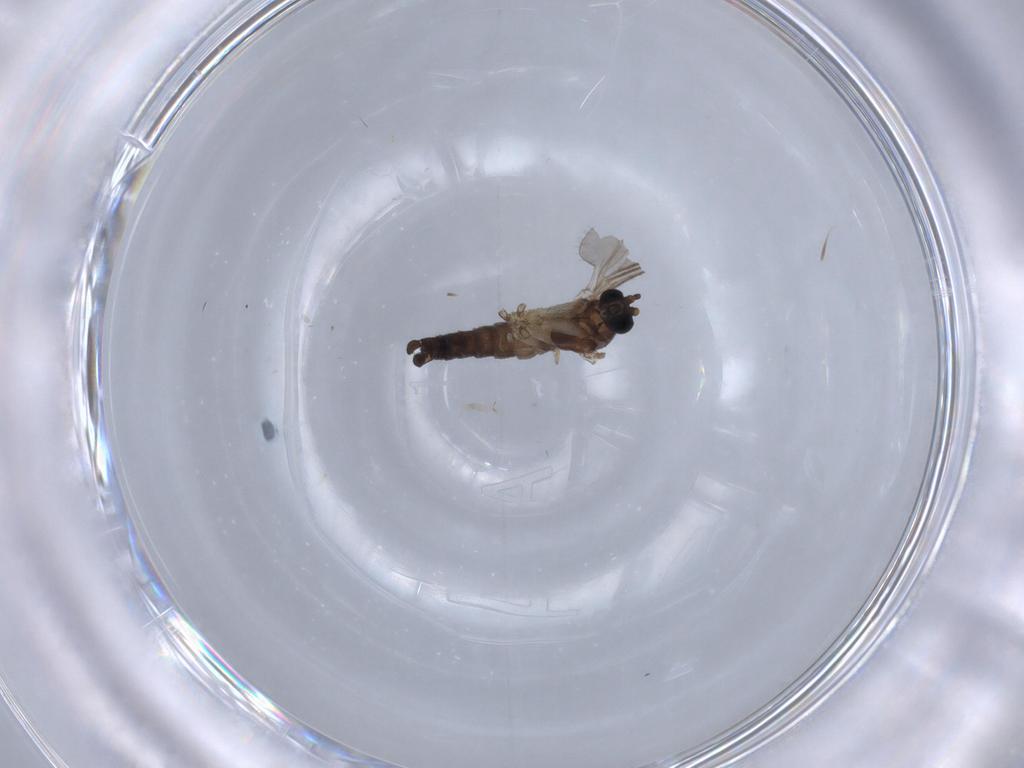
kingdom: Animalia
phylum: Arthropoda
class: Insecta
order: Diptera
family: Sciaridae
